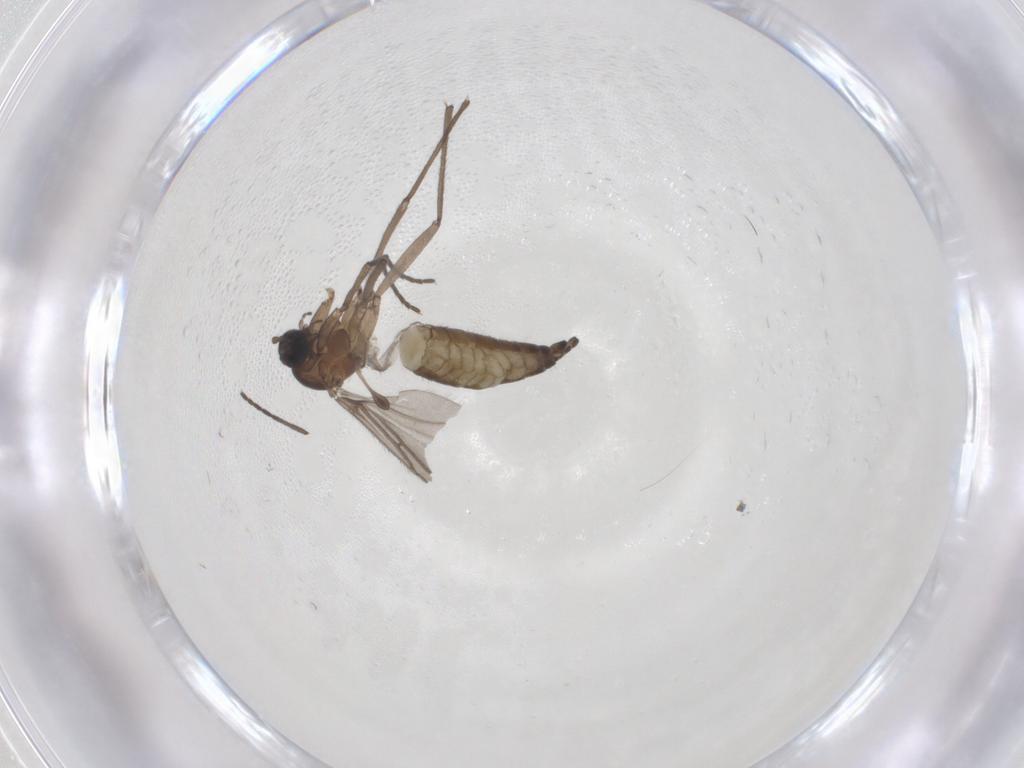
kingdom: Animalia
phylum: Arthropoda
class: Insecta
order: Diptera
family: Sciaridae
